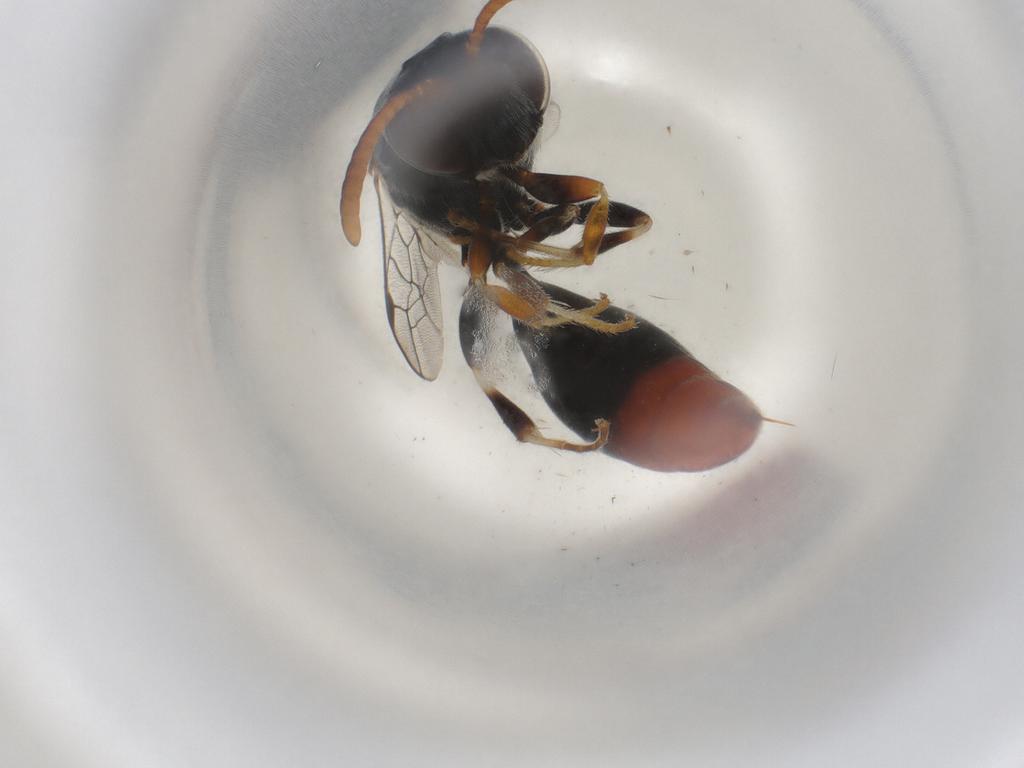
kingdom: Animalia
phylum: Arthropoda
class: Insecta
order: Hymenoptera
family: Psenidae
